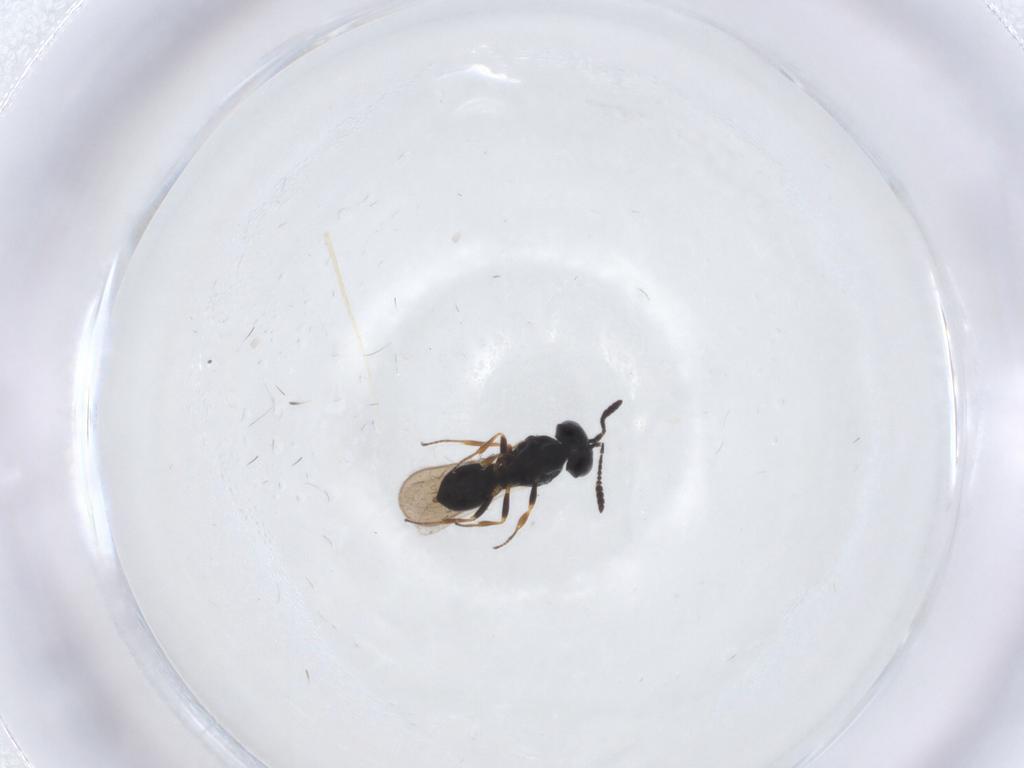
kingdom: Animalia
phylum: Arthropoda
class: Insecta
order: Hymenoptera
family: Scelionidae
